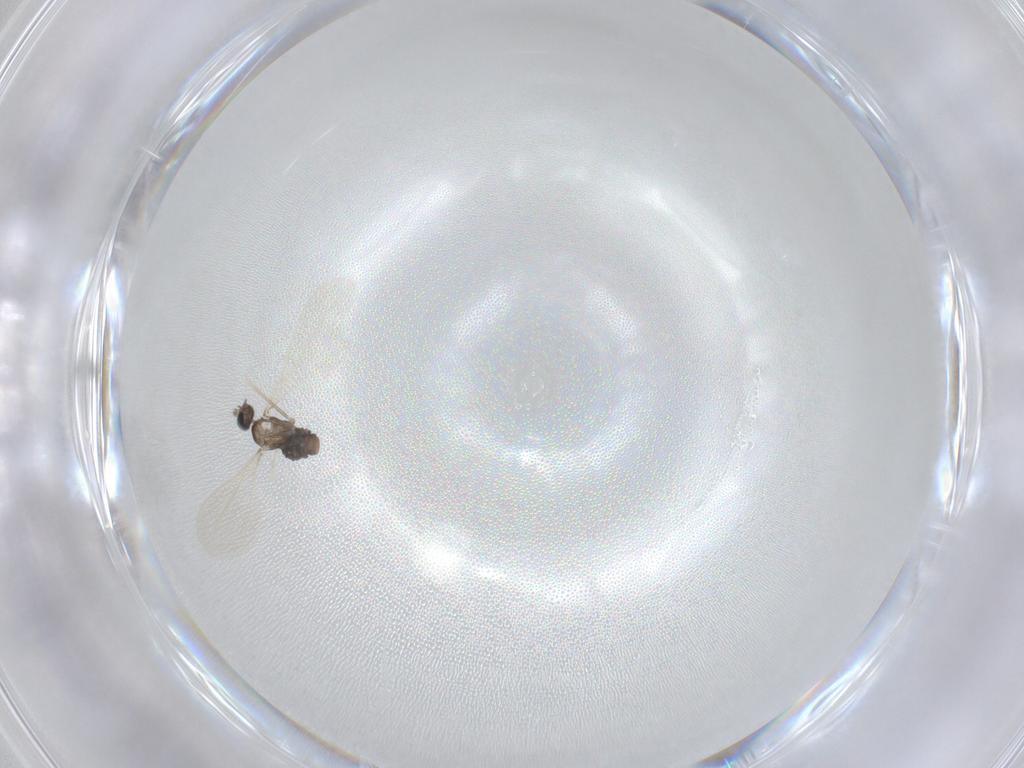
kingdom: Animalia
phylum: Arthropoda
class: Insecta
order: Diptera
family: Cecidomyiidae
